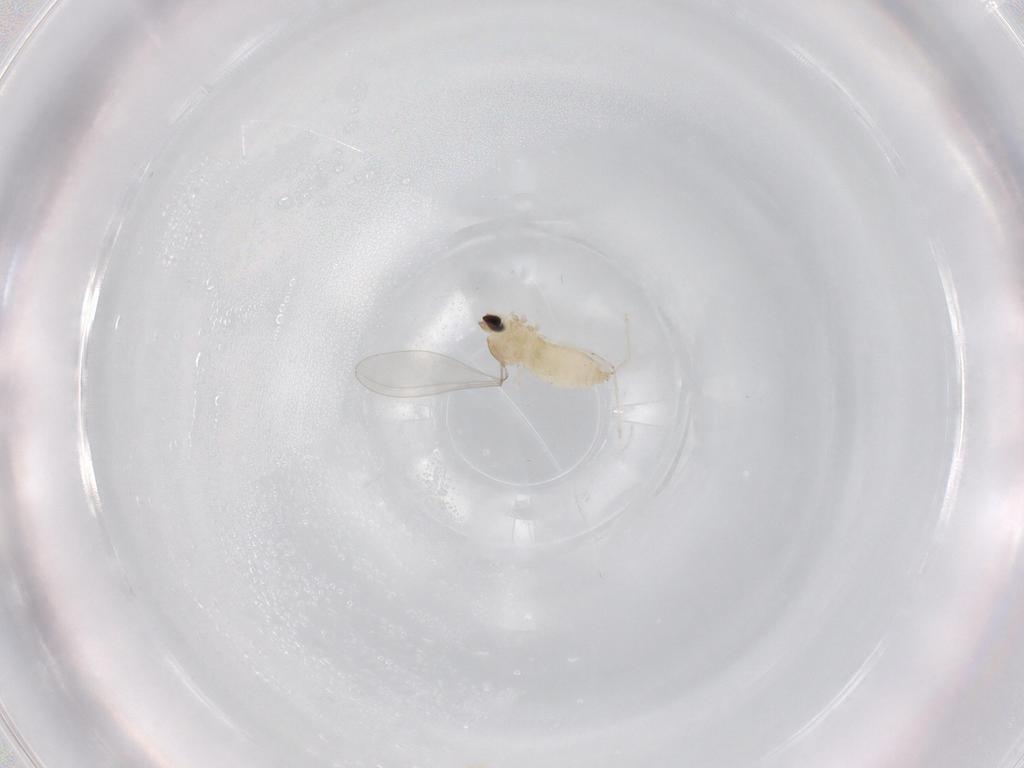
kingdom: Animalia
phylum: Arthropoda
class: Insecta
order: Diptera
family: Cecidomyiidae
